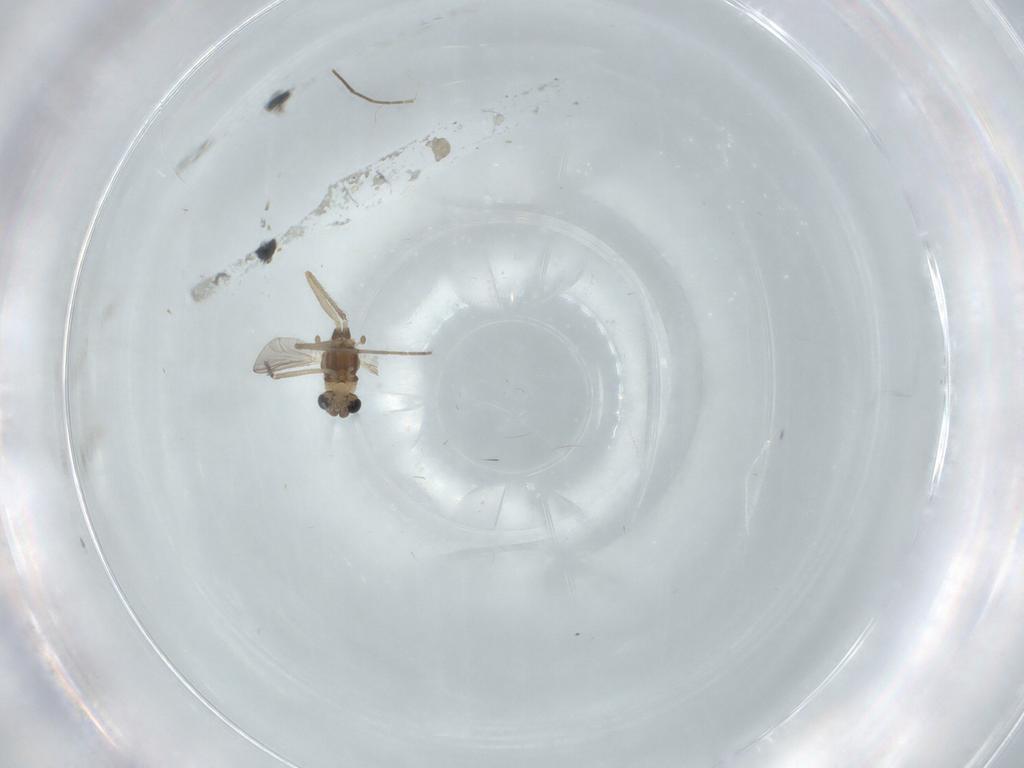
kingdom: Animalia
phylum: Arthropoda
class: Insecta
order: Diptera
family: Chironomidae
